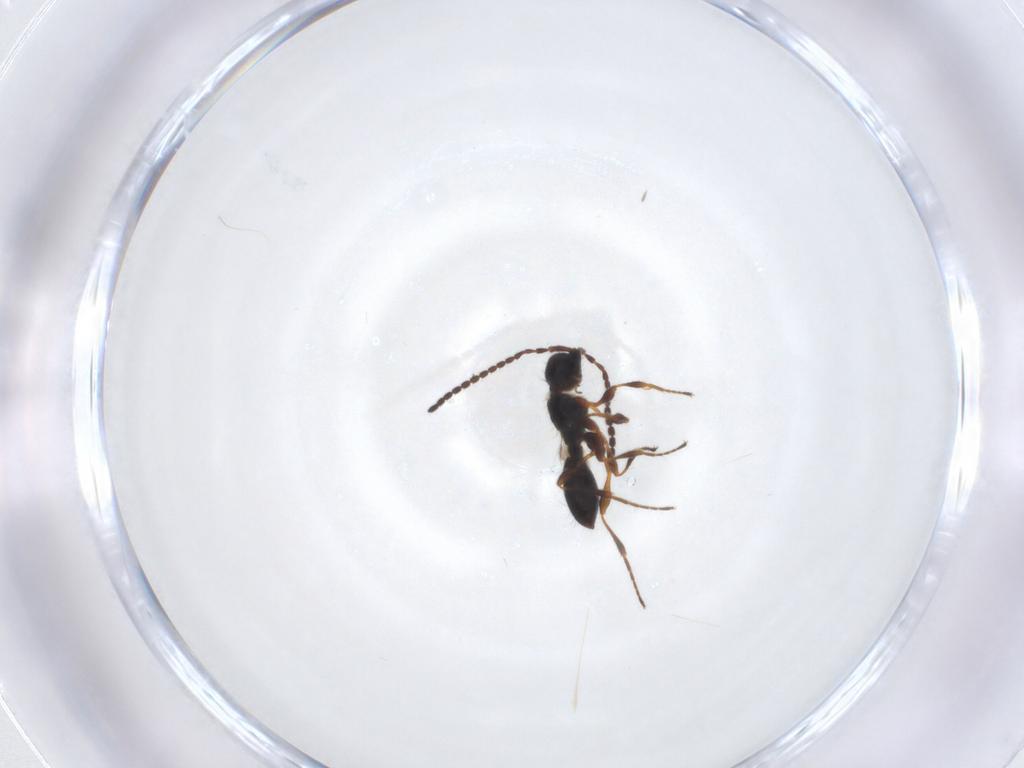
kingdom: Animalia
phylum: Arthropoda
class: Insecta
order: Hymenoptera
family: Diapriidae
